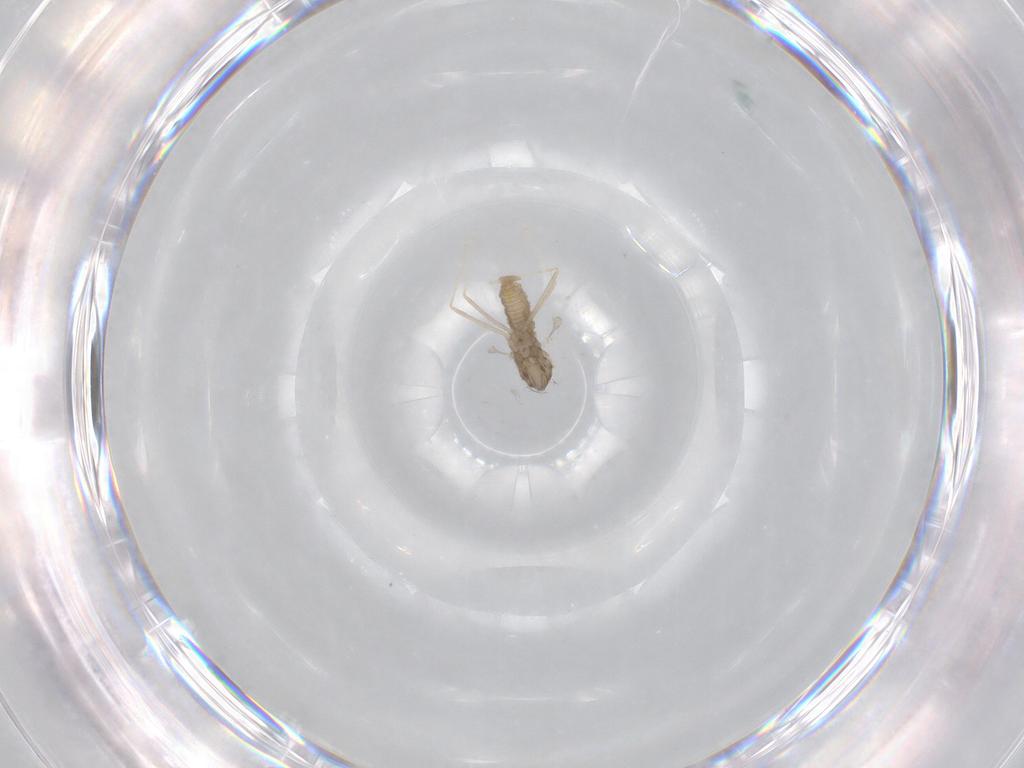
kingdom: Animalia
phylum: Arthropoda
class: Insecta
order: Diptera
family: Cecidomyiidae
